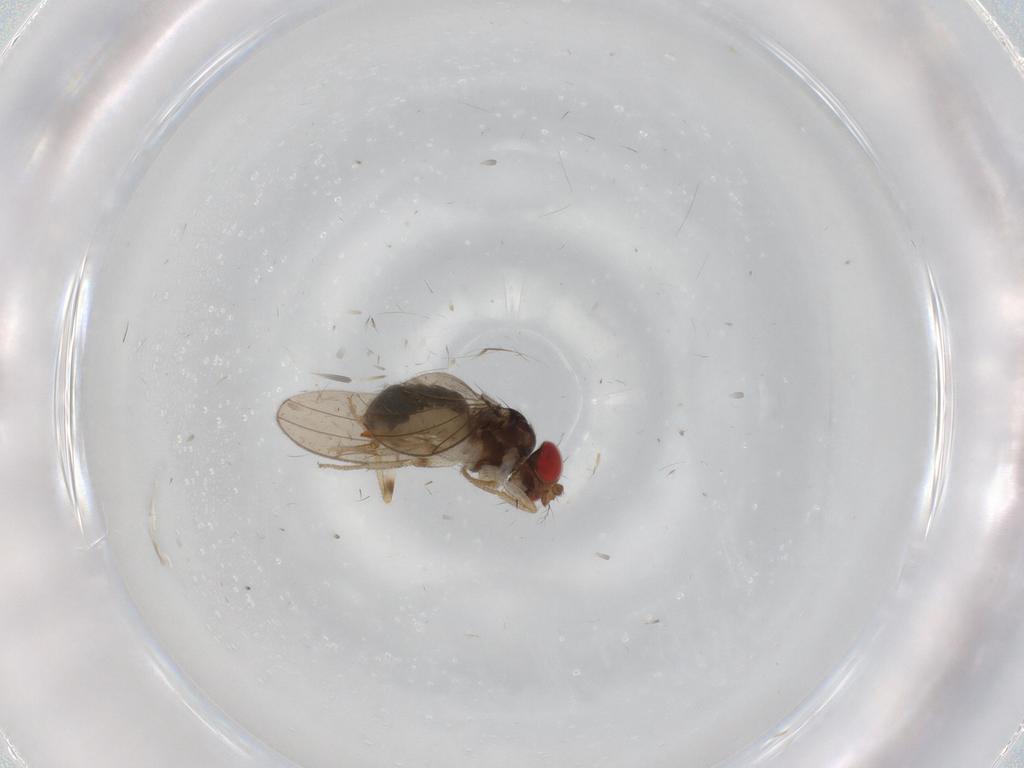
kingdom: Animalia
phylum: Arthropoda
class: Insecta
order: Diptera
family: Drosophilidae
